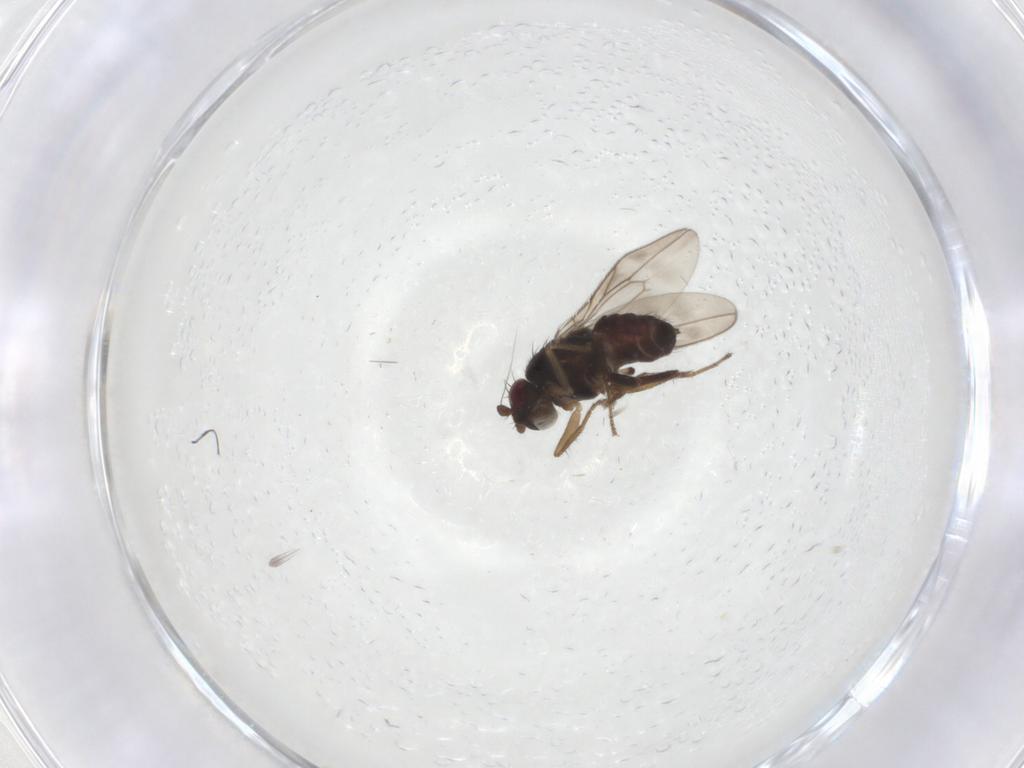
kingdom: Animalia
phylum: Arthropoda
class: Insecta
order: Diptera
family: Sphaeroceridae
